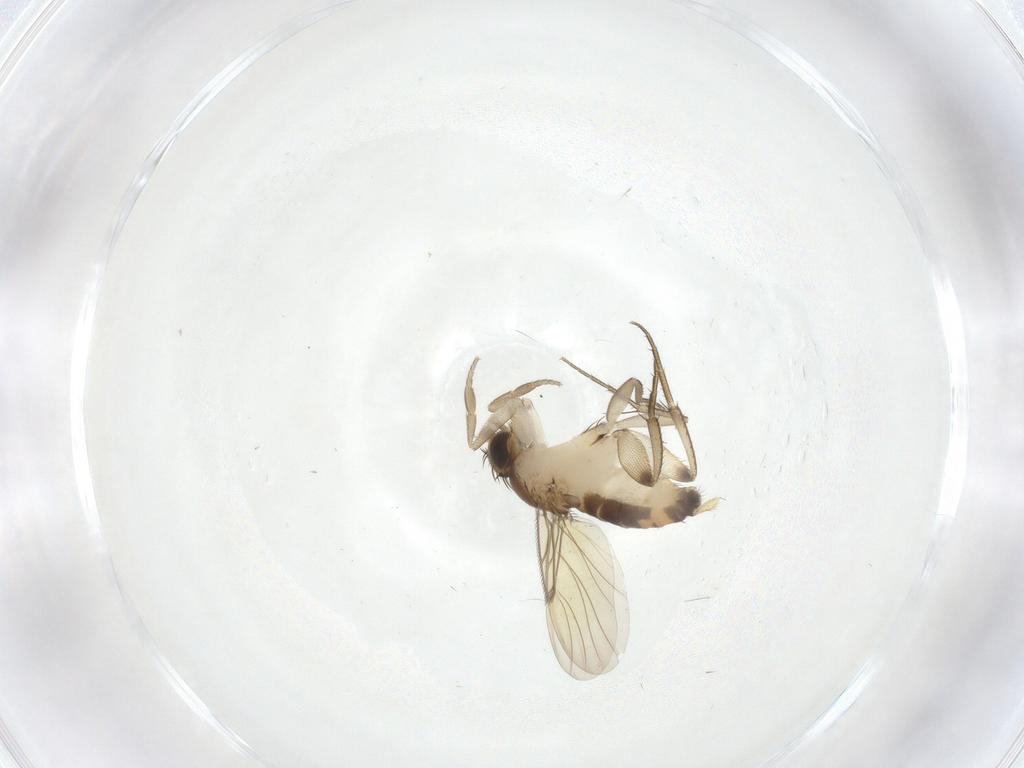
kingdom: Animalia
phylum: Arthropoda
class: Insecta
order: Diptera
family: Phoridae
